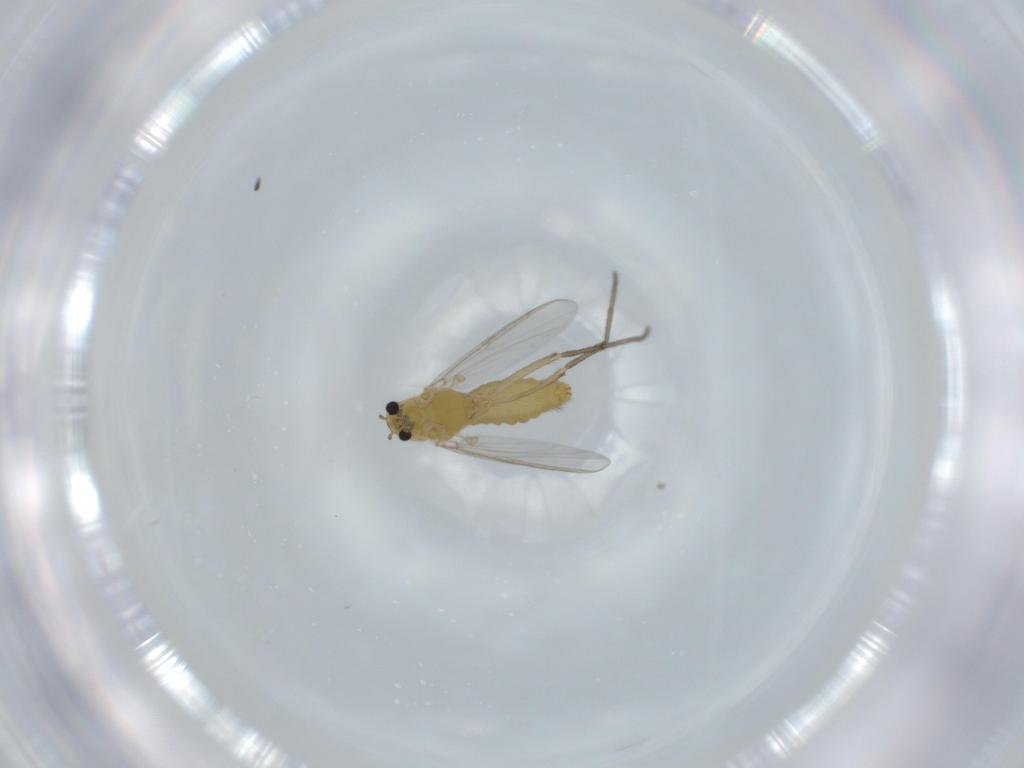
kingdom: Animalia
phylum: Arthropoda
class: Insecta
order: Diptera
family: Chironomidae
